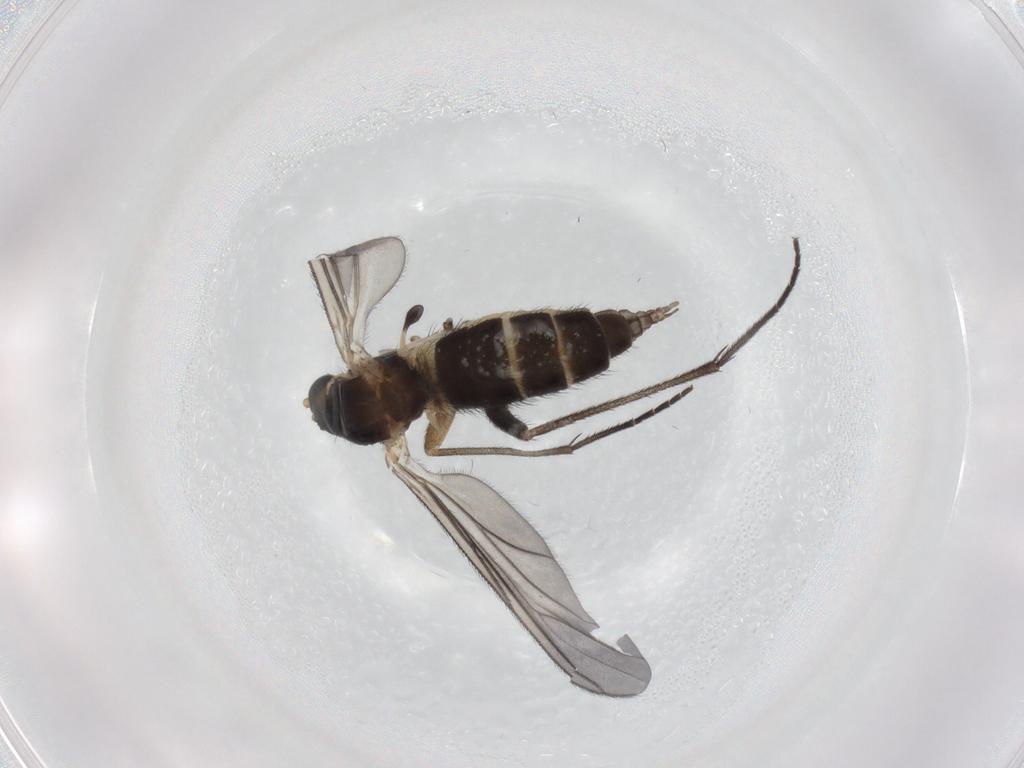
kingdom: Animalia
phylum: Arthropoda
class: Insecta
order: Diptera
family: Sciaridae
